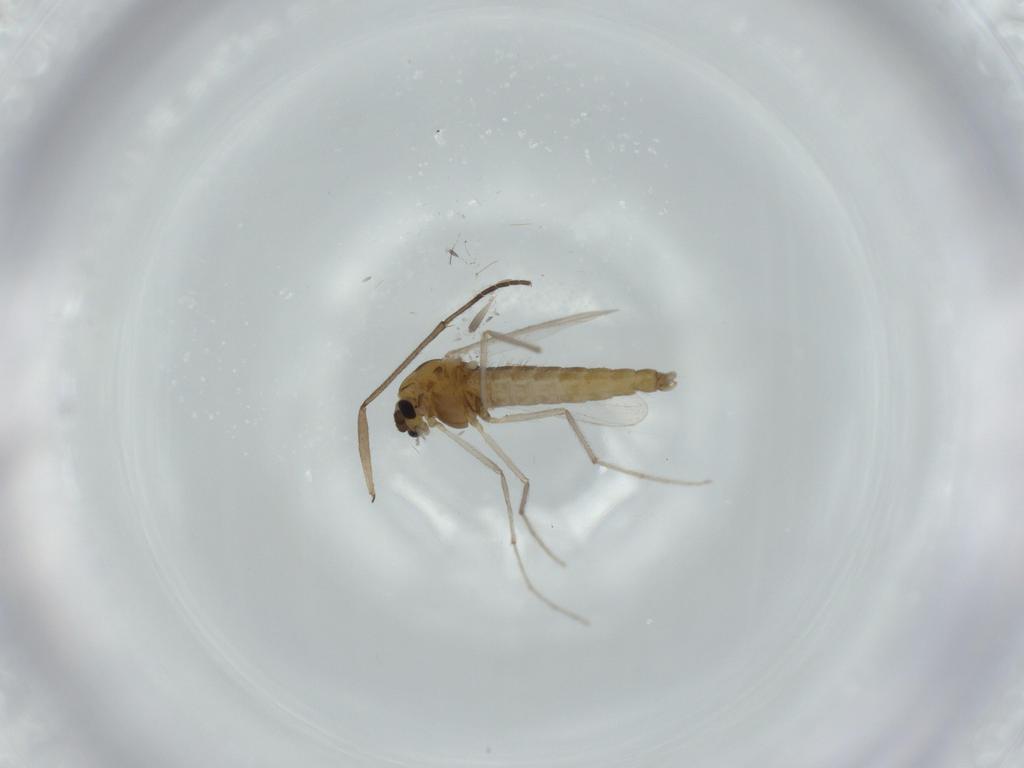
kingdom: Animalia
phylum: Arthropoda
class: Insecta
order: Diptera
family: Cecidomyiidae
